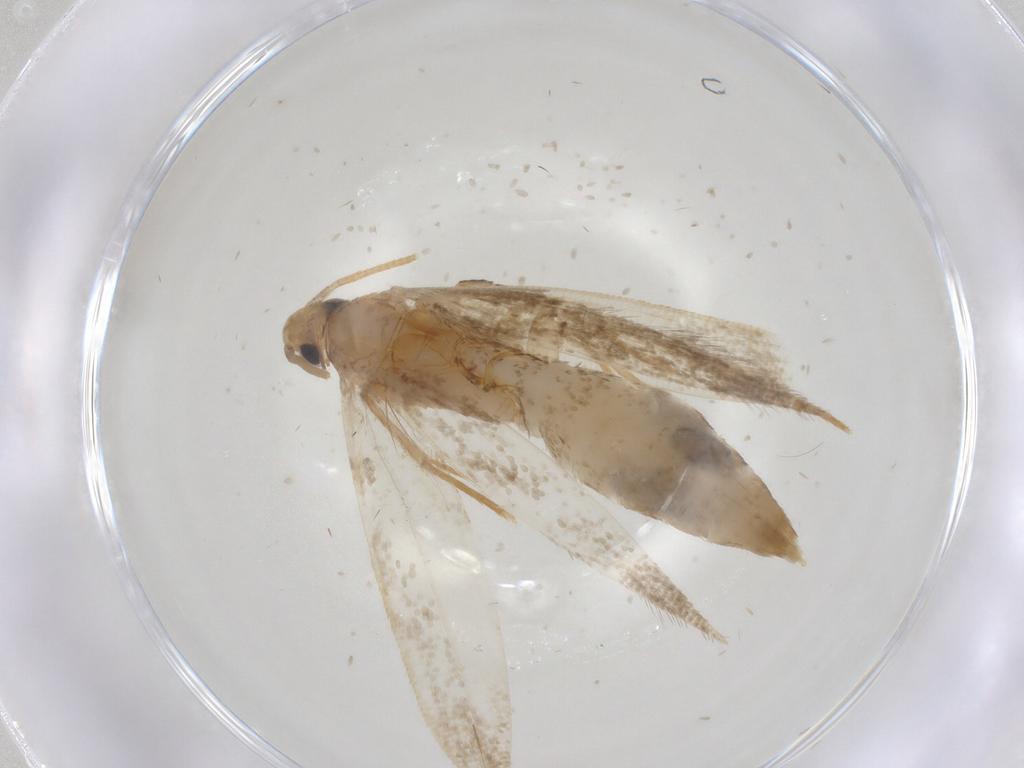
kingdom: Animalia
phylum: Arthropoda
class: Insecta
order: Lepidoptera
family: Tineidae
